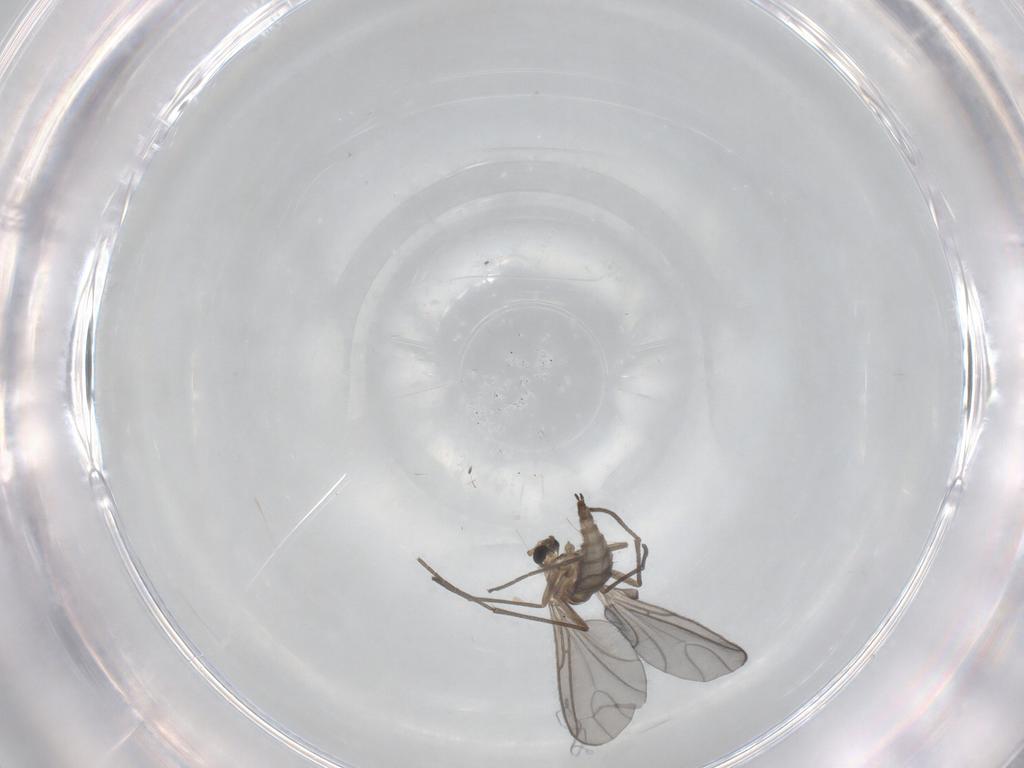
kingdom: Animalia
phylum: Arthropoda
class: Insecta
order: Diptera
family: Sciaridae
